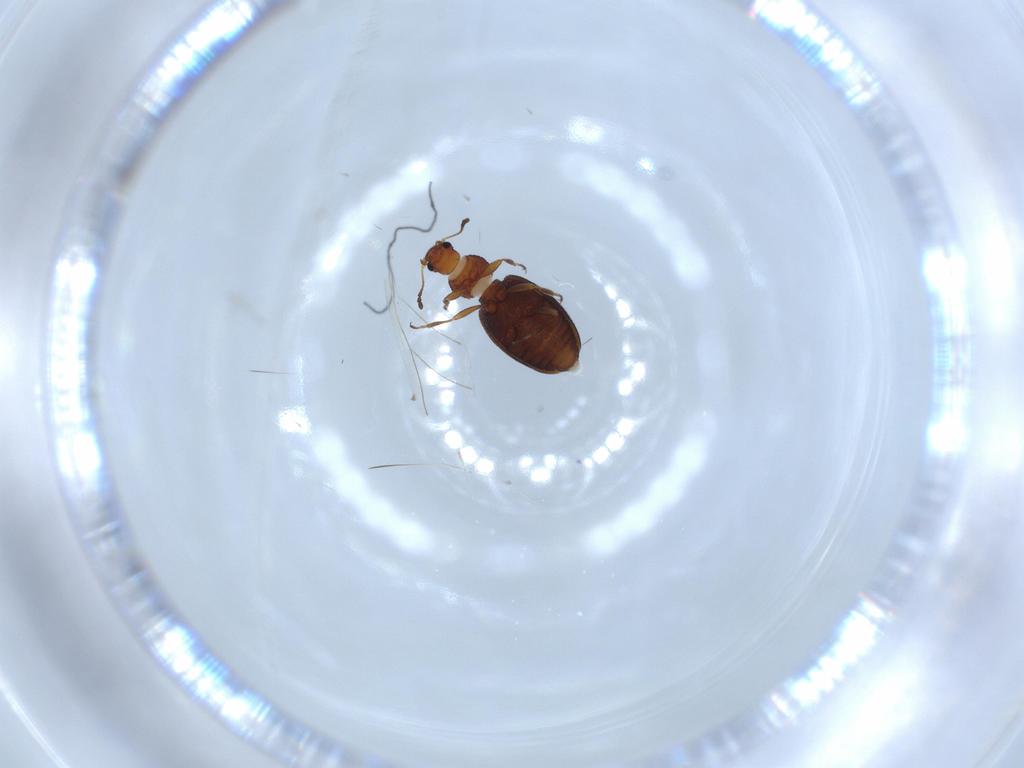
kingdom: Animalia
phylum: Arthropoda
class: Insecta
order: Coleoptera
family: Latridiidae
